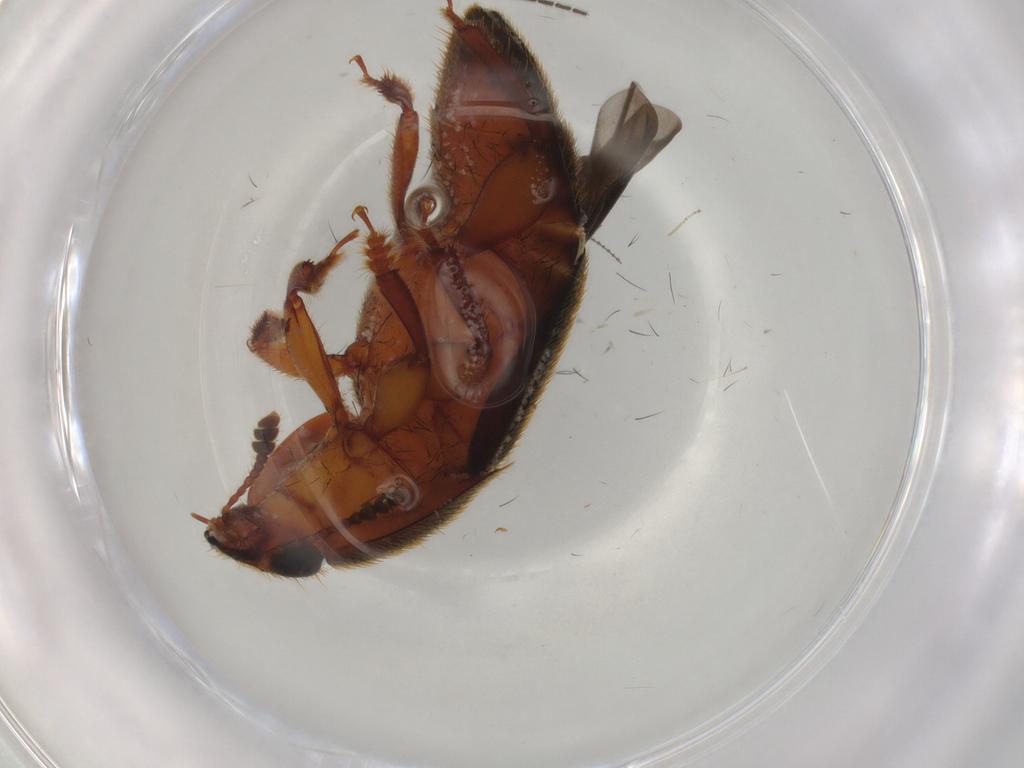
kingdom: Animalia
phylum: Arthropoda
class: Insecta
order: Coleoptera
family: Nitidulidae
